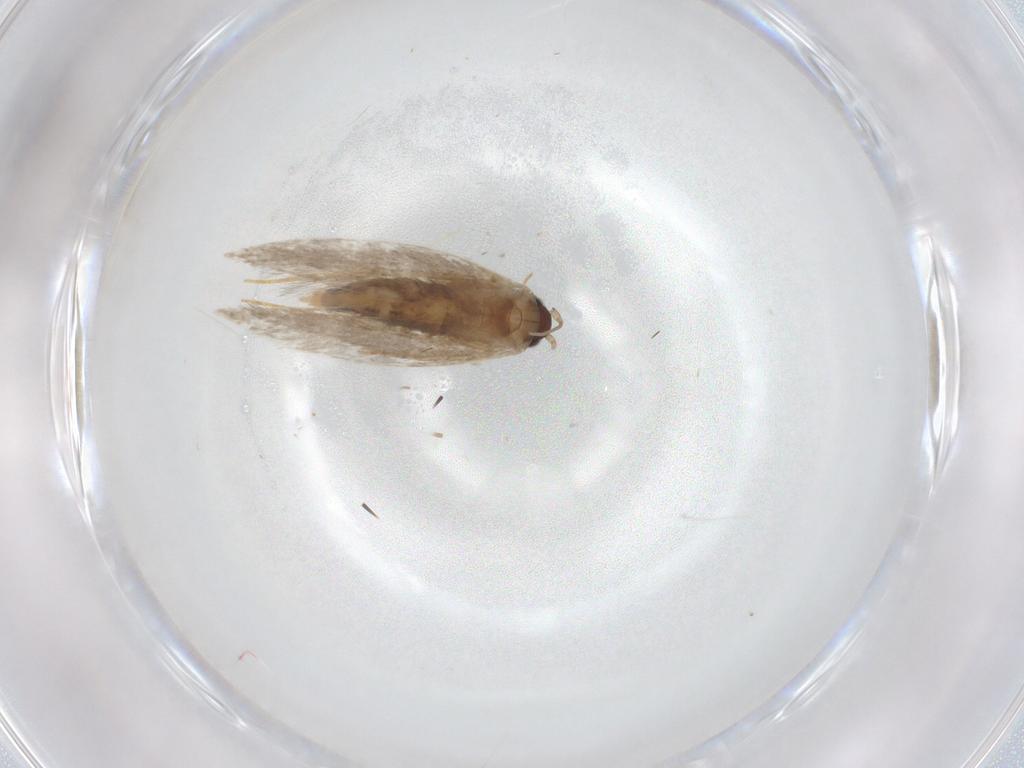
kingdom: Animalia
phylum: Arthropoda
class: Insecta
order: Lepidoptera
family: Tineidae
